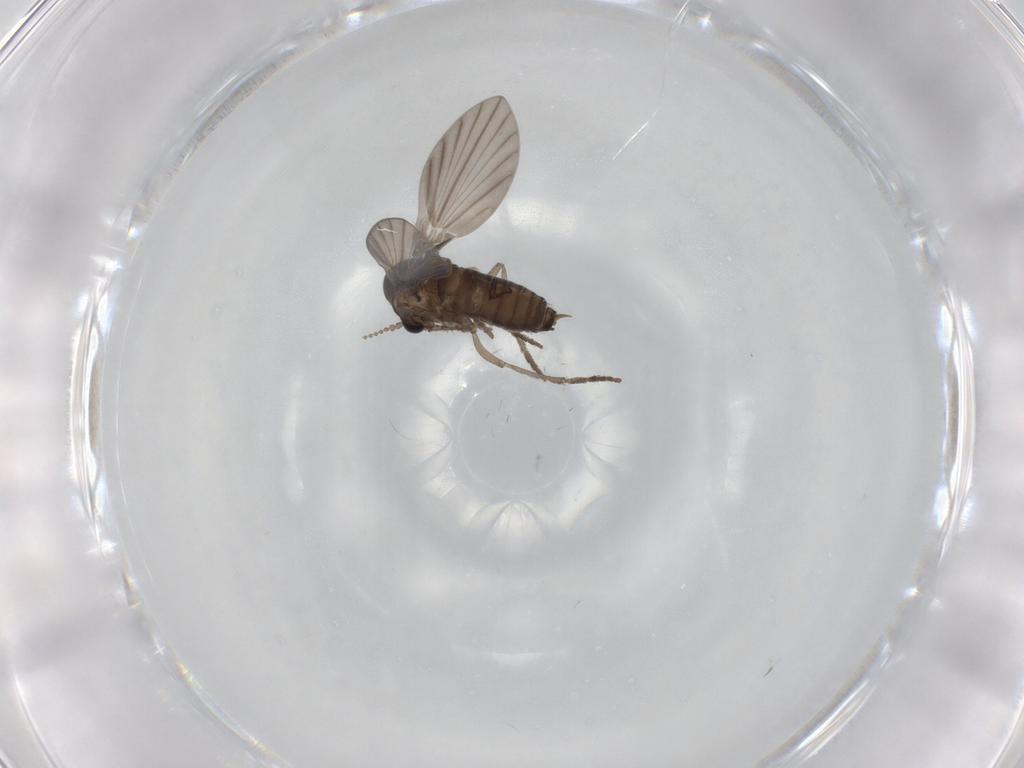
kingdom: Animalia
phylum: Arthropoda
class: Insecta
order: Diptera
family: Psychodidae
